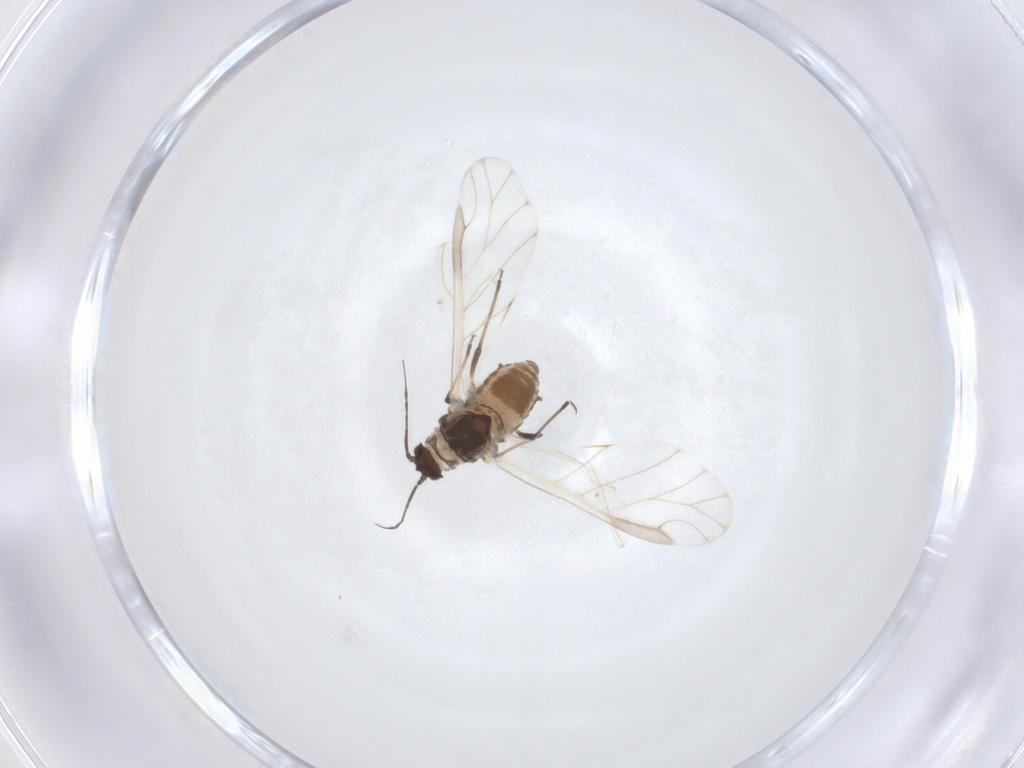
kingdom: Animalia
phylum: Arthropoda
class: Insecta
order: Hemiptera
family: Aphididae
